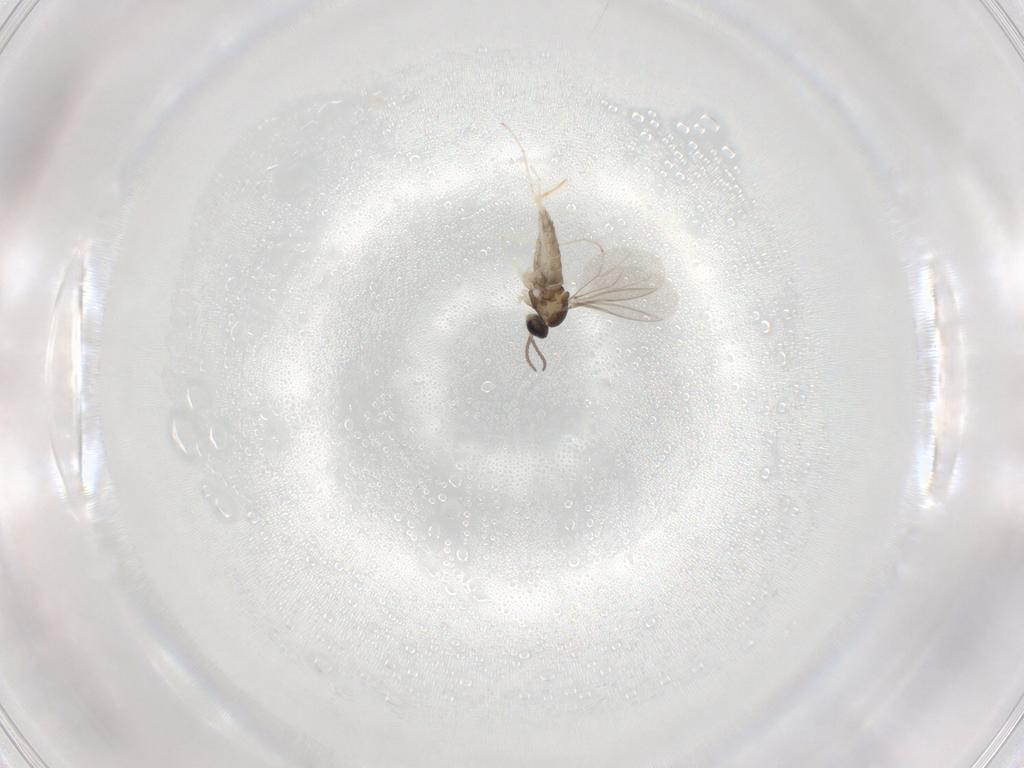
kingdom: Animalia
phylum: Arthropoda
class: Insecta
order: Diptera
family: Cecidomyiidae
